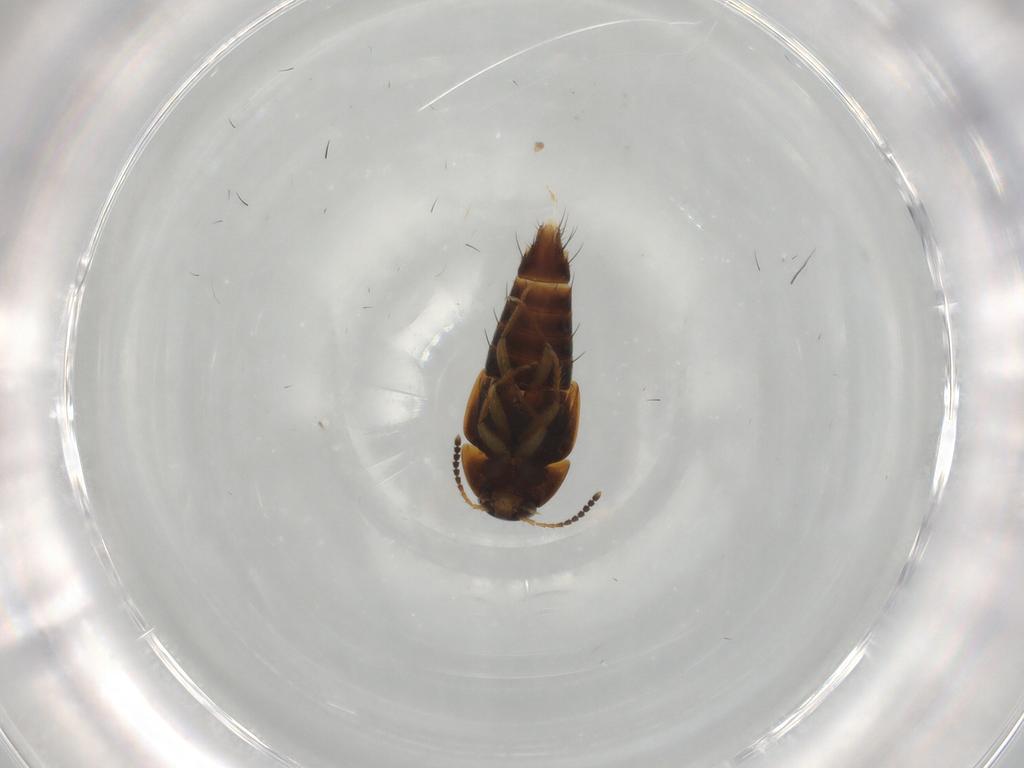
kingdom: Animalia
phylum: Arthropoda
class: Insecta
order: Coleoptera
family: Staphylinidae
